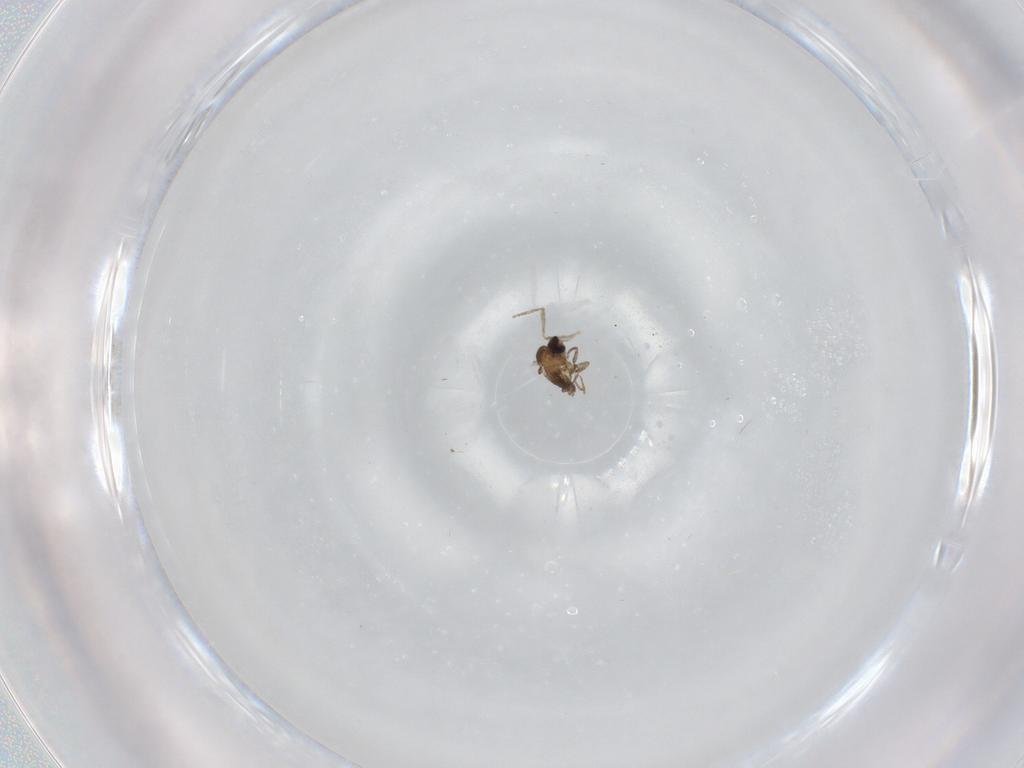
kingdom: Animalia
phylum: Arthropoda
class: Insecta
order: Diptera
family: Cecidomyiidae
